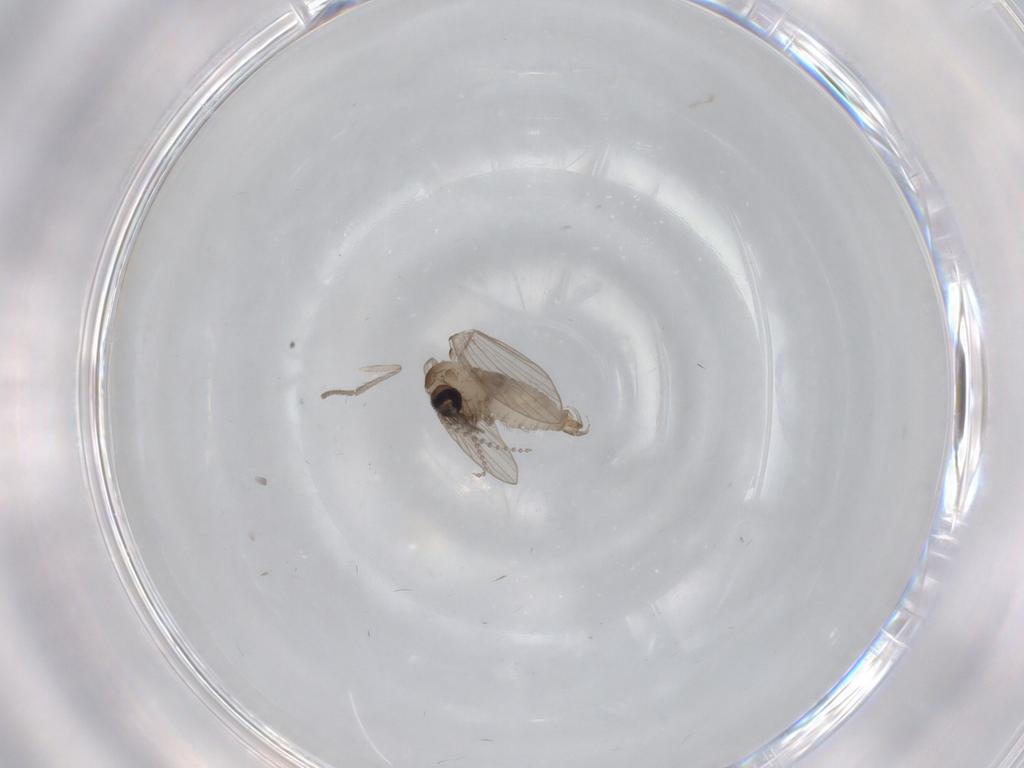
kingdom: Animalia
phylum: Arthropoda
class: Insecta
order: Diptera
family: Psychodidae
